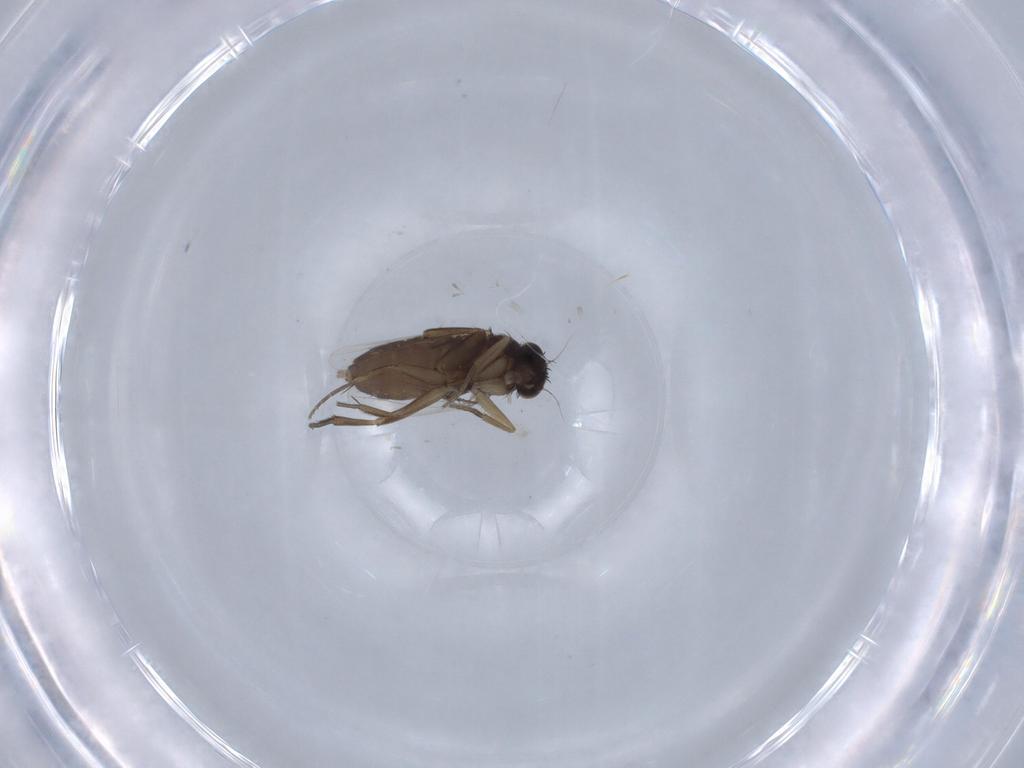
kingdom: Animalia
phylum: Arthropoda
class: Insecta
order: Diptera
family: Phoridae
